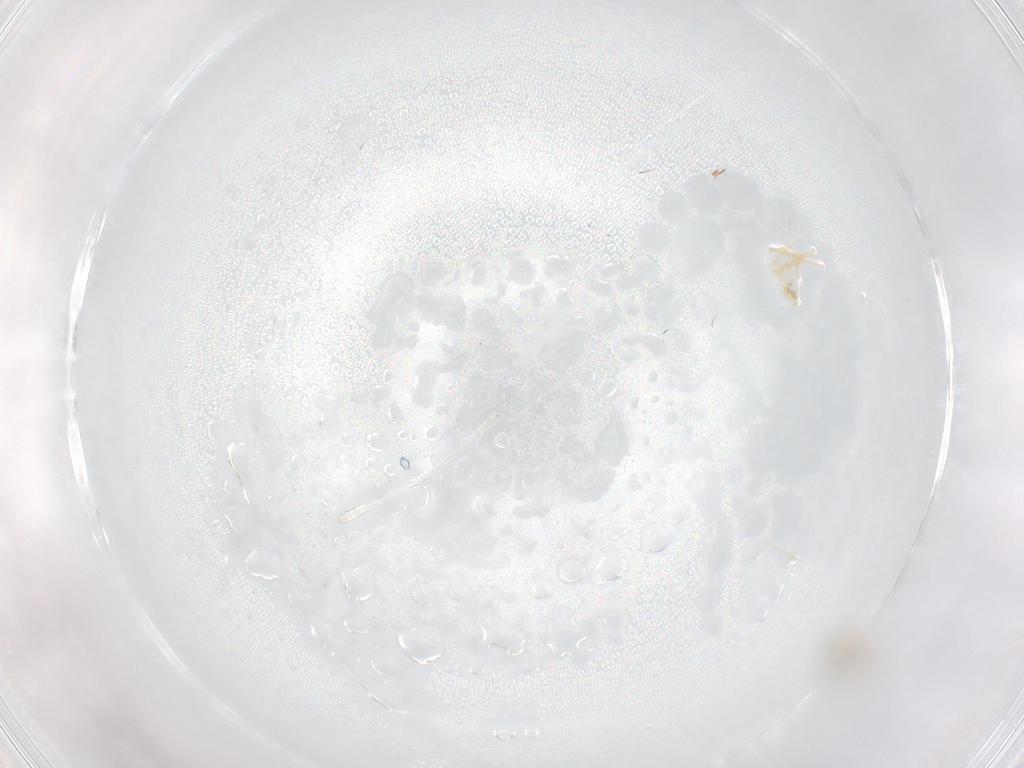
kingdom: Animalia
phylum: Arthropoda
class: Insecta
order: Diptera
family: Cecidomyiidae
